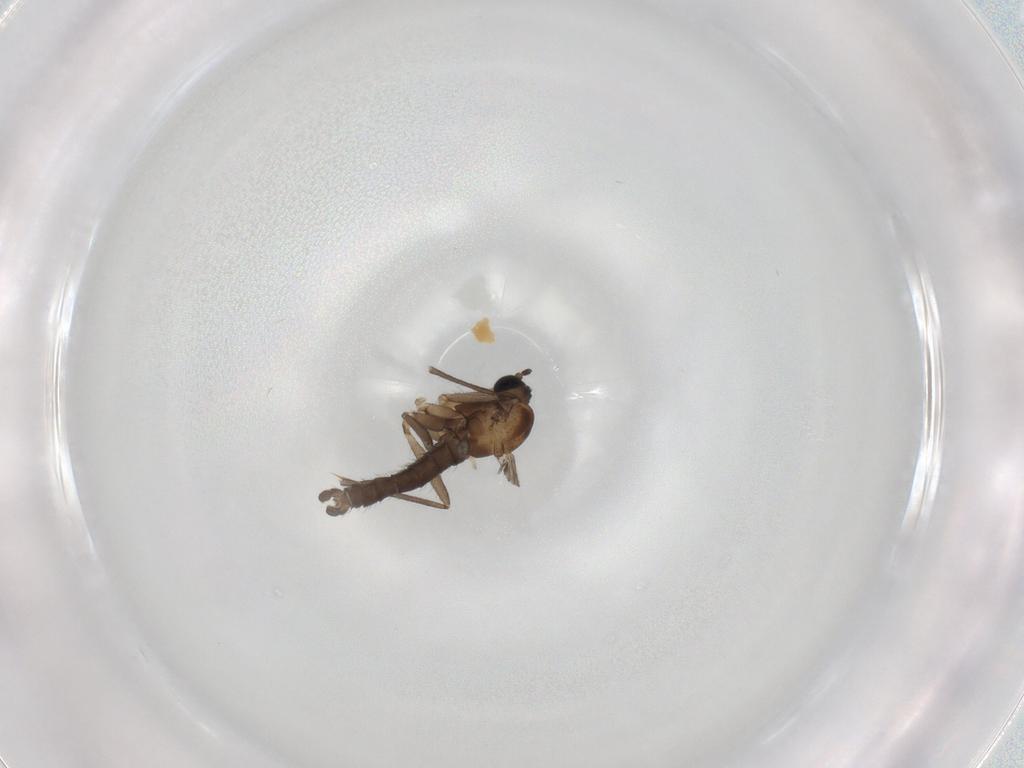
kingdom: Animalia
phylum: Arthropoda
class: Insecta
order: Diptera
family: Sciaridae
